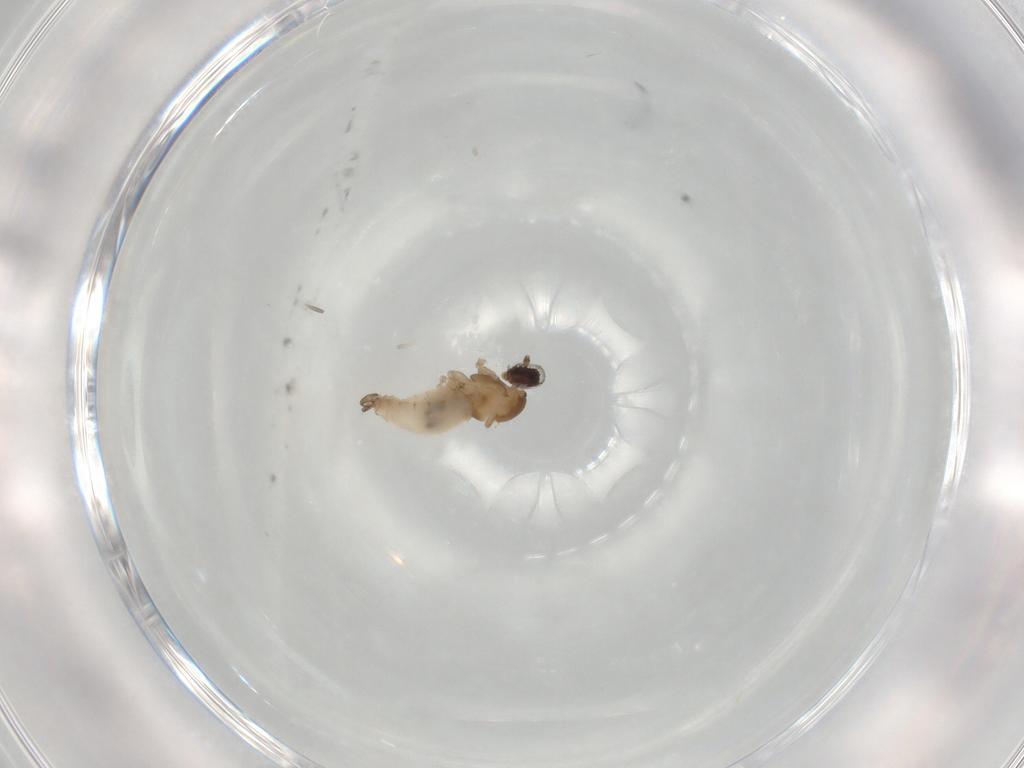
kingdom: Animalia
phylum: Arthropoda
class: Insecta
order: Diptera
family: Cecidomyiidae
